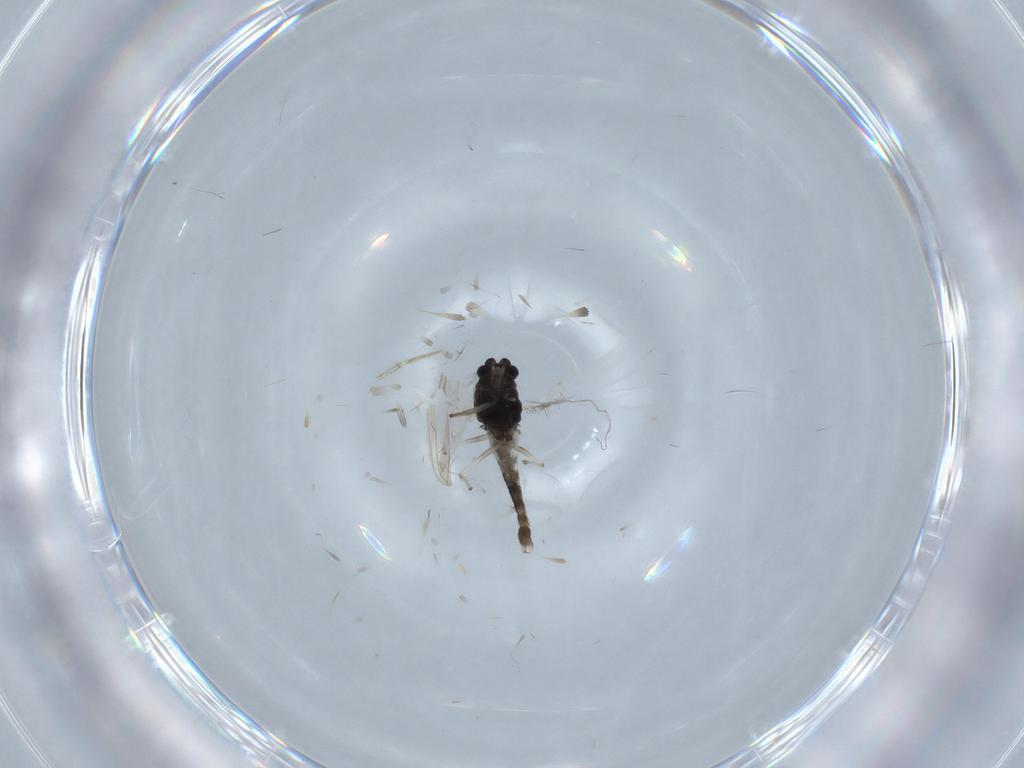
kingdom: Animalia
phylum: Arthropoda
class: Insecta
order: Diptera
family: Chironomidae
